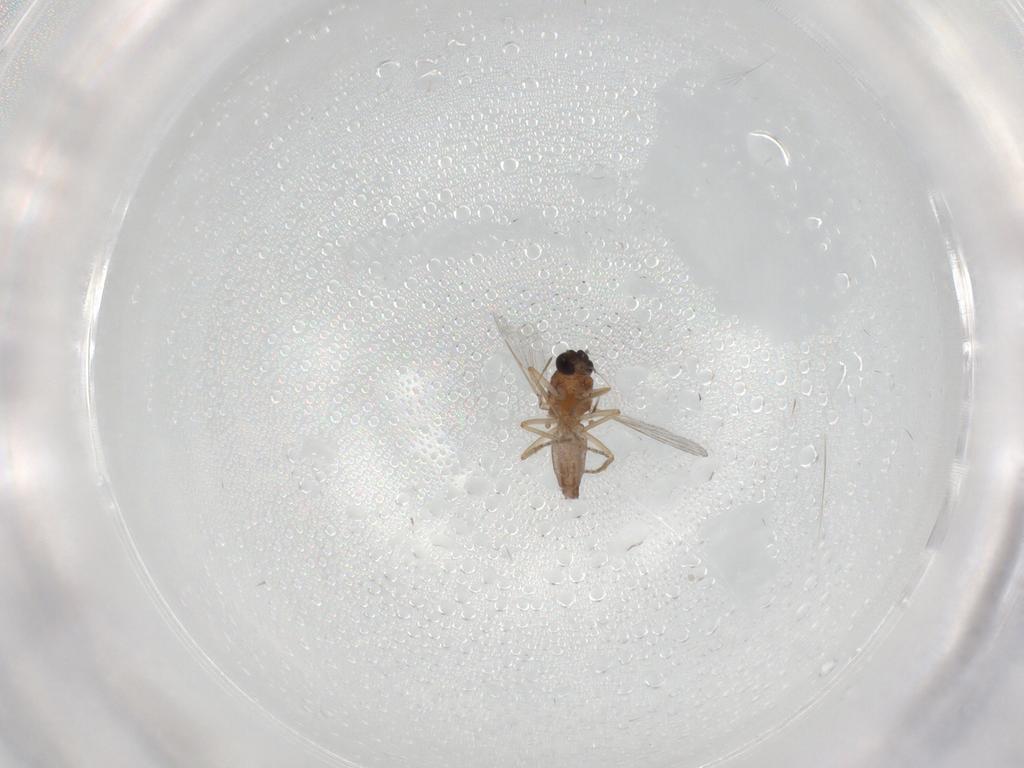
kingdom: Animalia
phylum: Arthropoda
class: Insecta
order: Diptera
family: Ceratopogonidae
